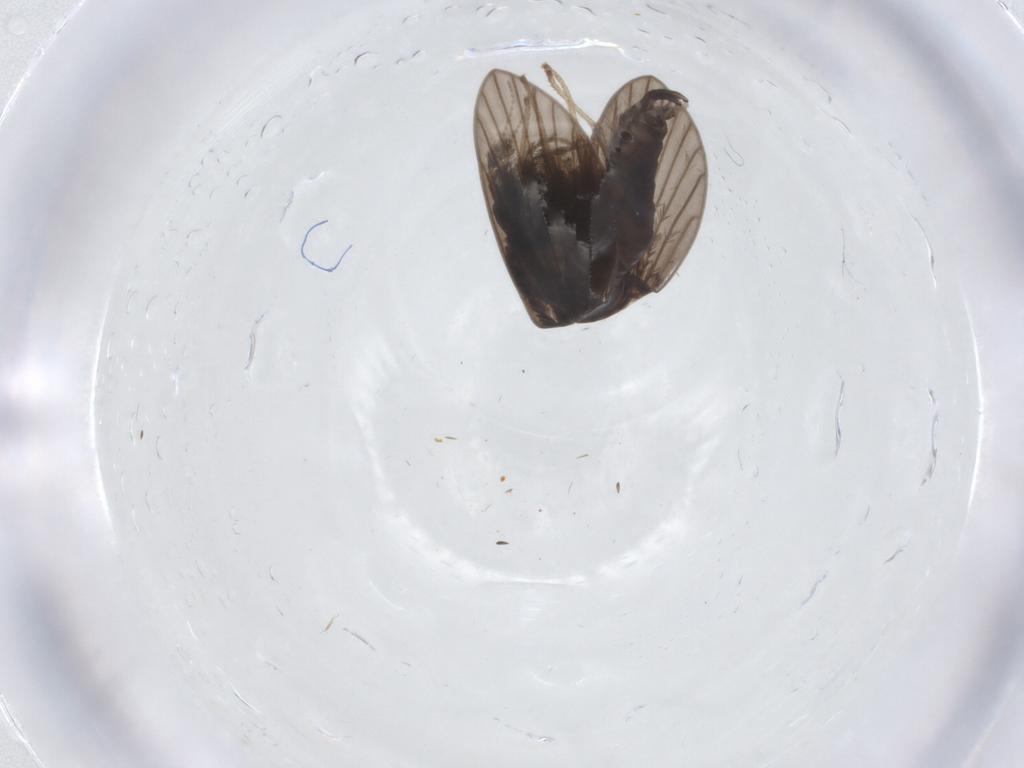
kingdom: Animalia
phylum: Arthropoda
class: Insecta
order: Diptera
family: Psychodidae
